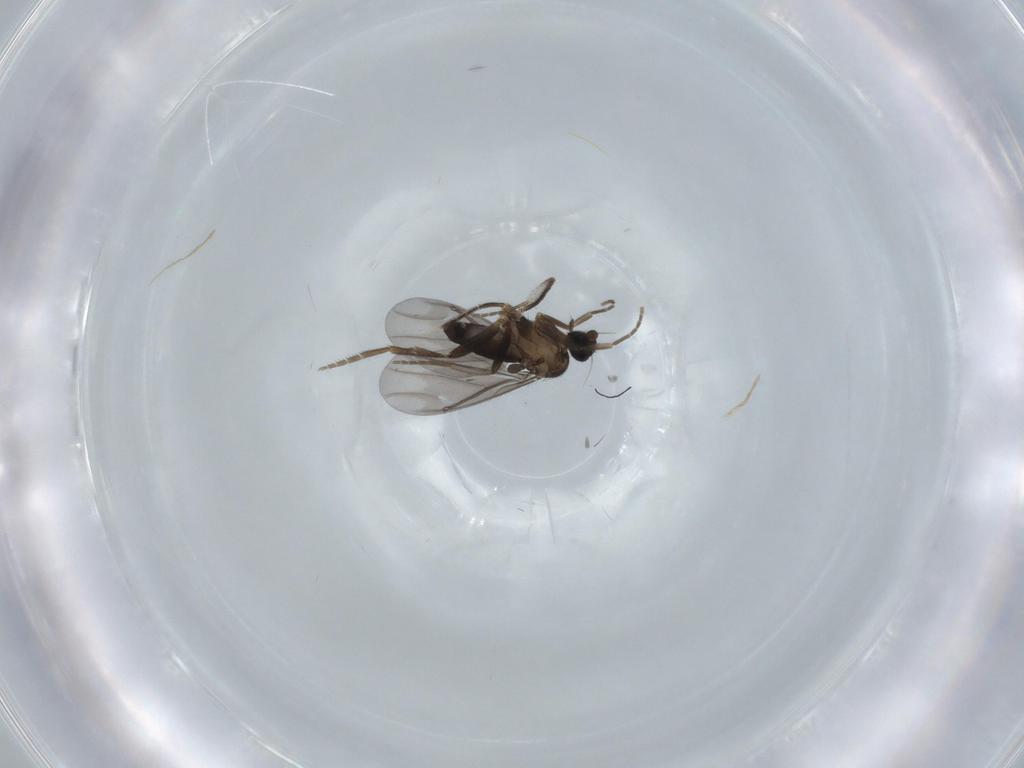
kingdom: Animalia
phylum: Arthropoda
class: Insecta
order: Diptera
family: Phoridae
